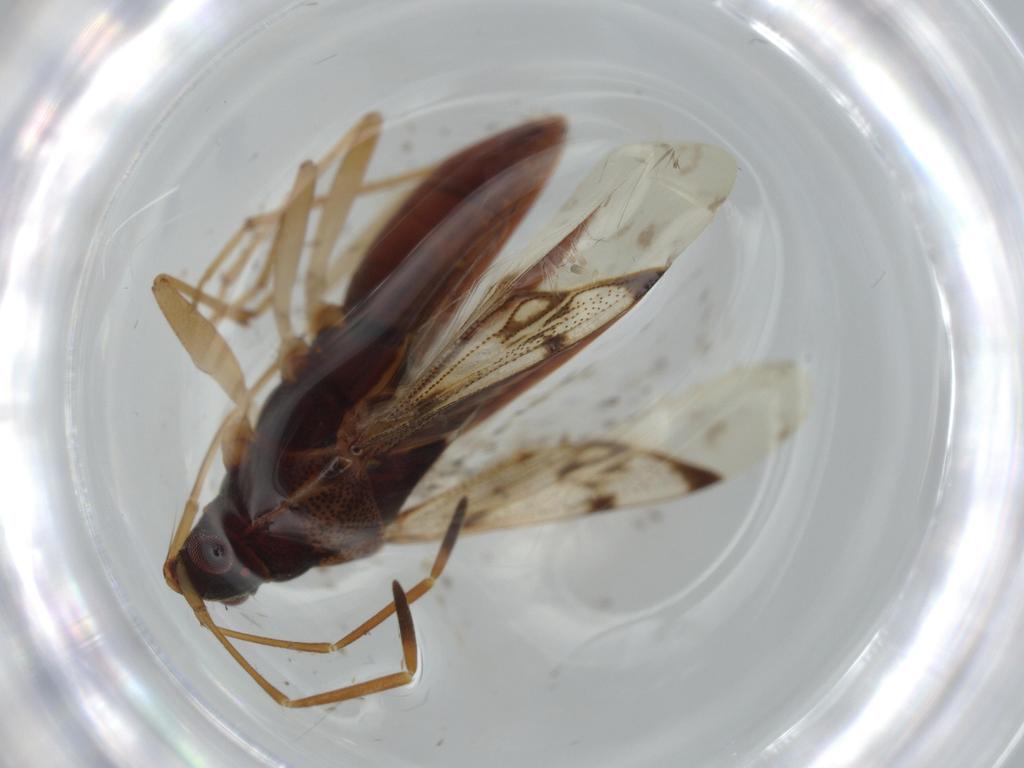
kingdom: Animalia
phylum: Arthropoda
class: Insecta
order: Hemiptera
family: Rhyparochromidae
